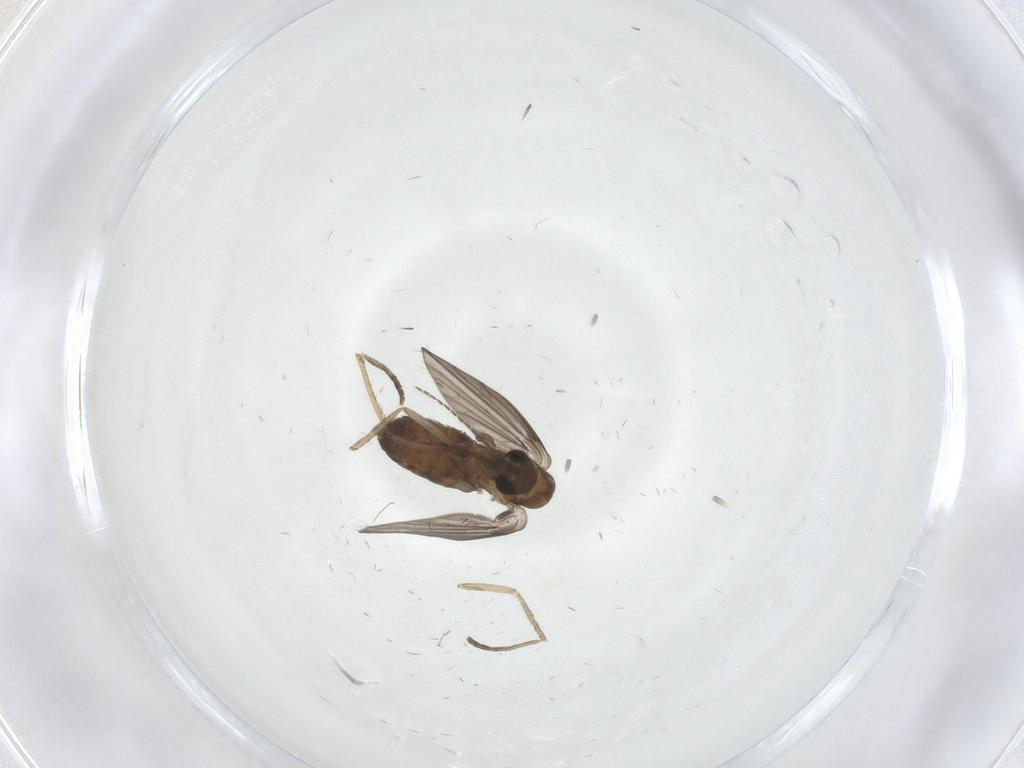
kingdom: Animalia
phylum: Arthropoda
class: Insecta
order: Diptera
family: Psychodidae
